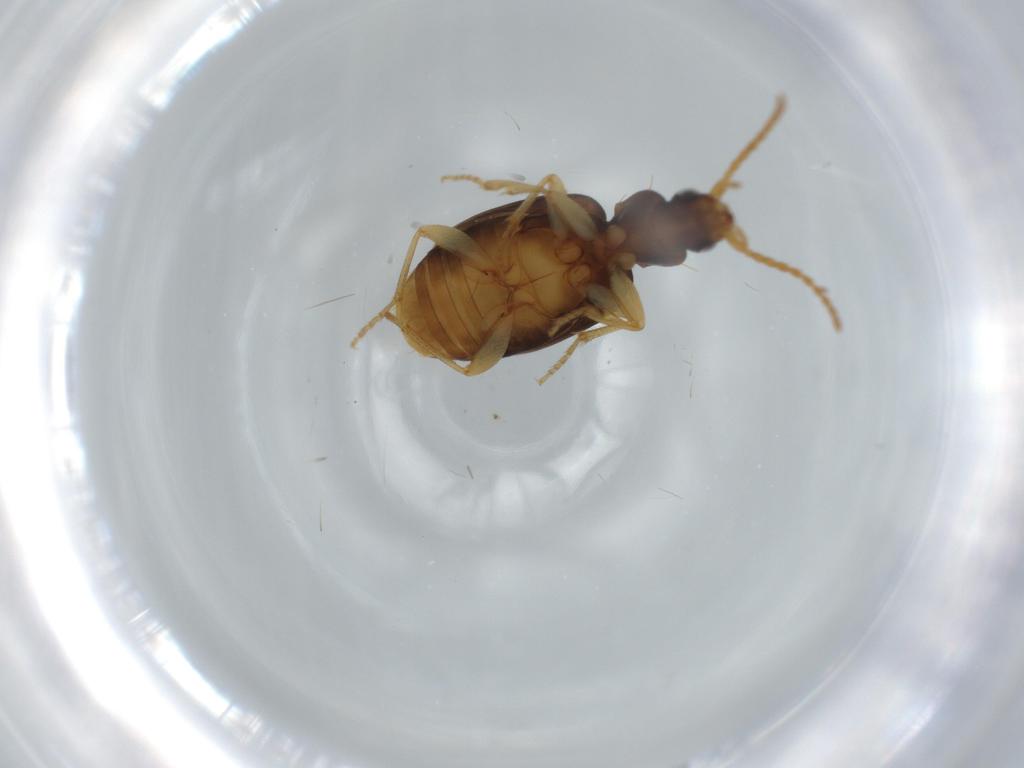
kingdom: Animalia
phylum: Arthropoda
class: Insecta
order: Coleoptera
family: Carabidae
